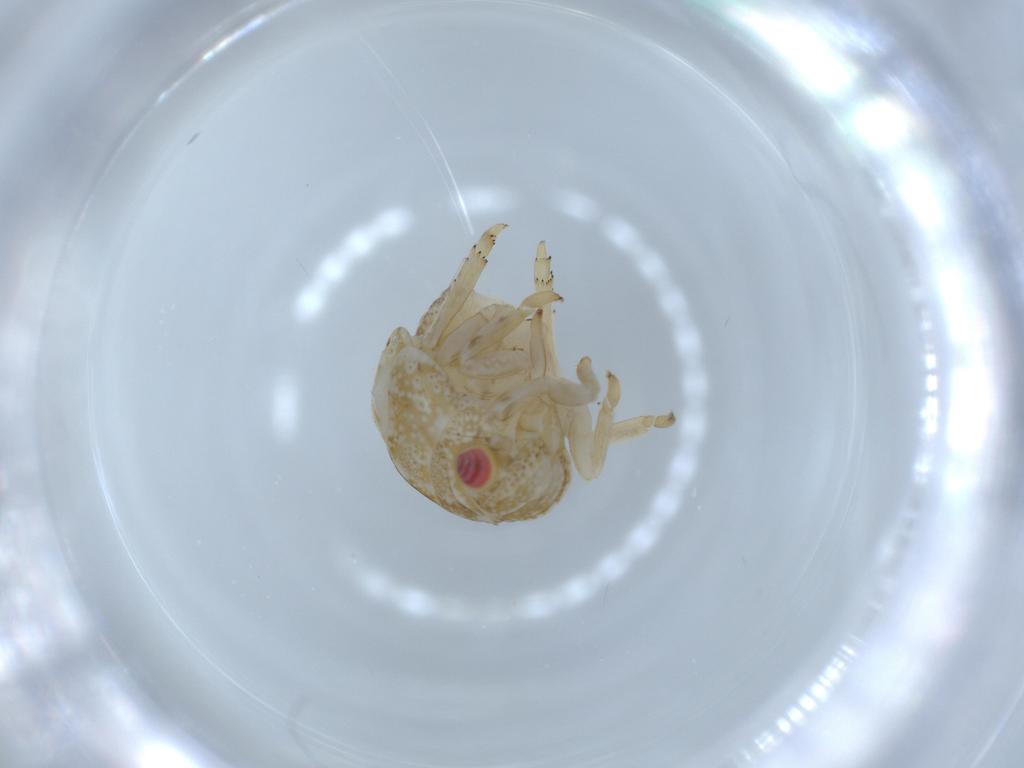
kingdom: Animalia
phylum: Arthropoda
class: Insecta
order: Hemiptera
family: Acanaloniidae
